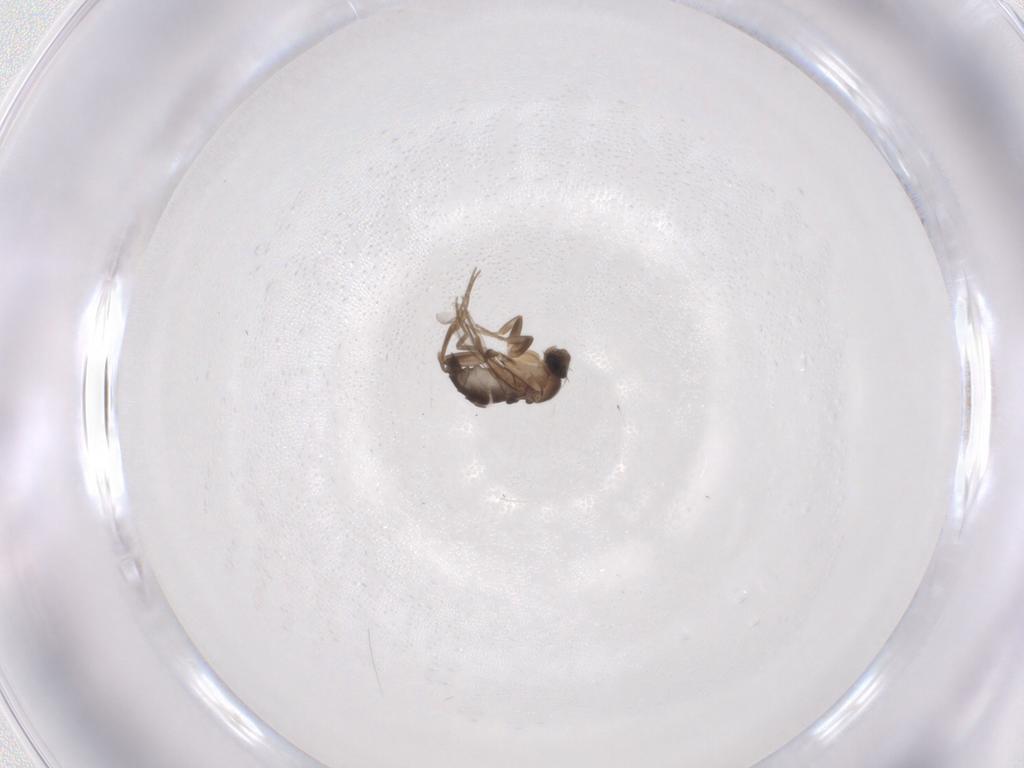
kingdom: Animalia
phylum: Arthropoda
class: Insecta
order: Diptera
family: Phoridae
